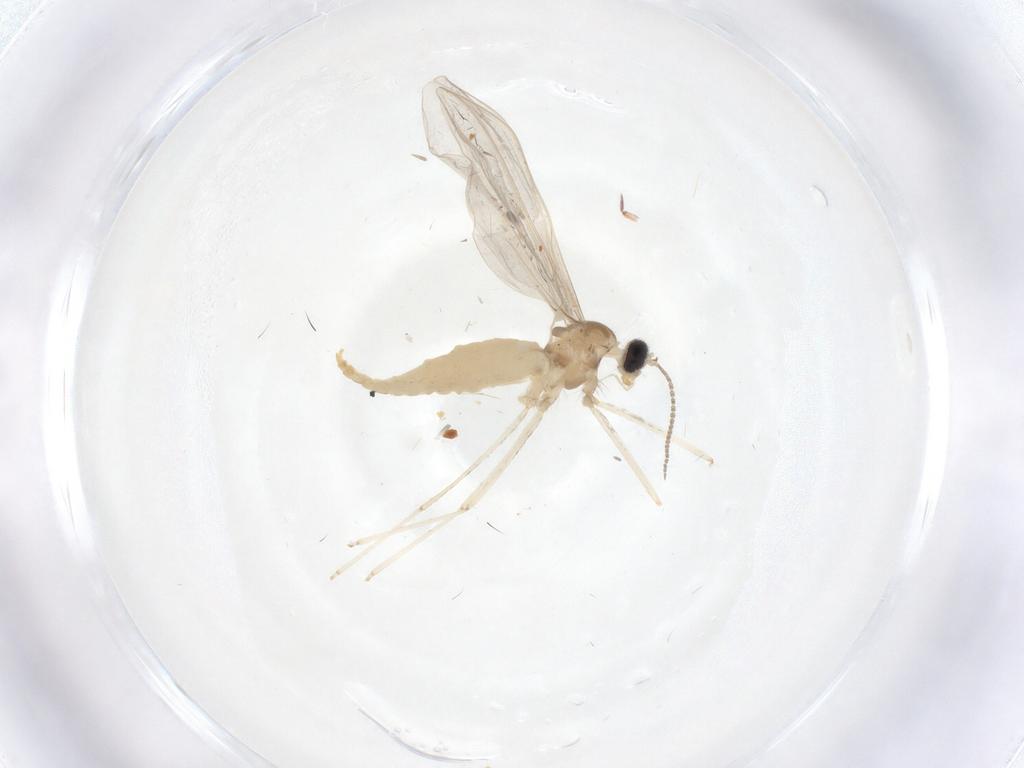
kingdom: Animalia
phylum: Arthropoda
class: Insecta
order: Diptera
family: Cecidomyiidae
